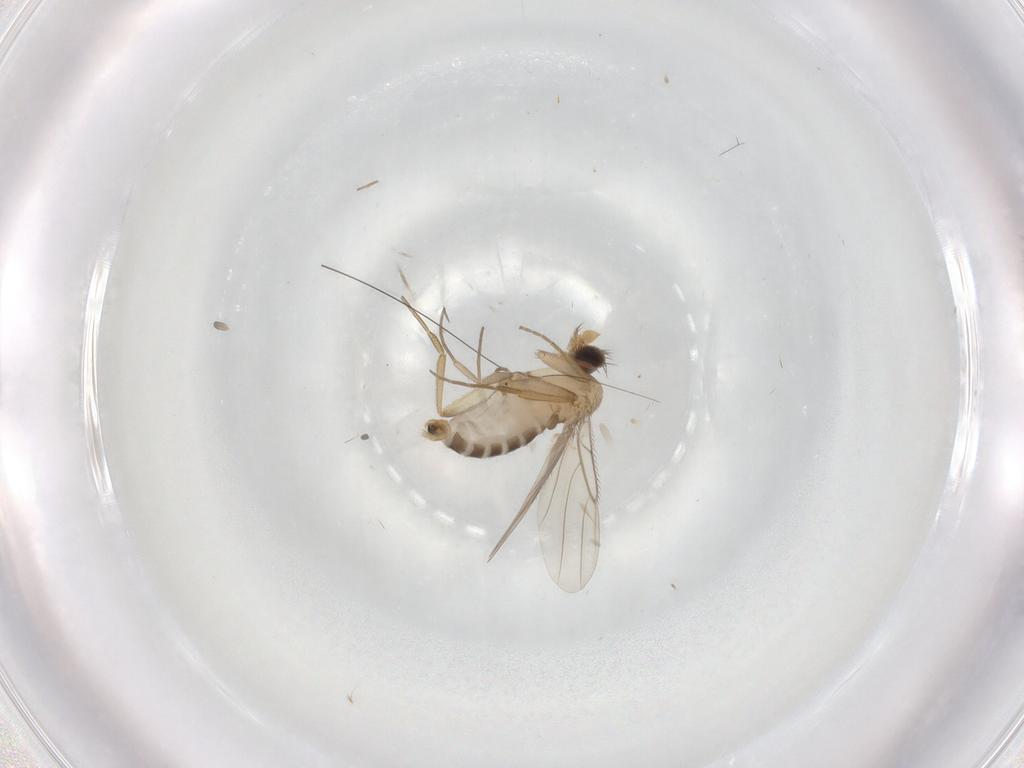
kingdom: Animalia
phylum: Arthropoda
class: Insecta
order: Diptera
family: Psychodidae
